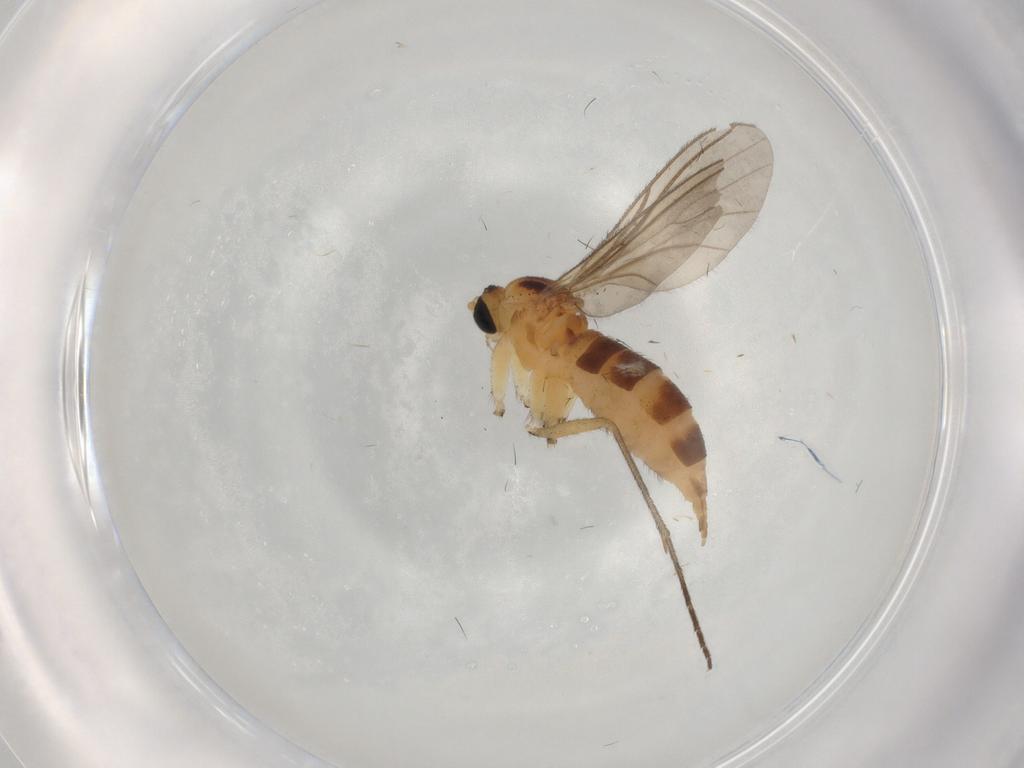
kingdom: Animalia
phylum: Arthropoda
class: Insecta
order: Diptera
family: Sciaridae
